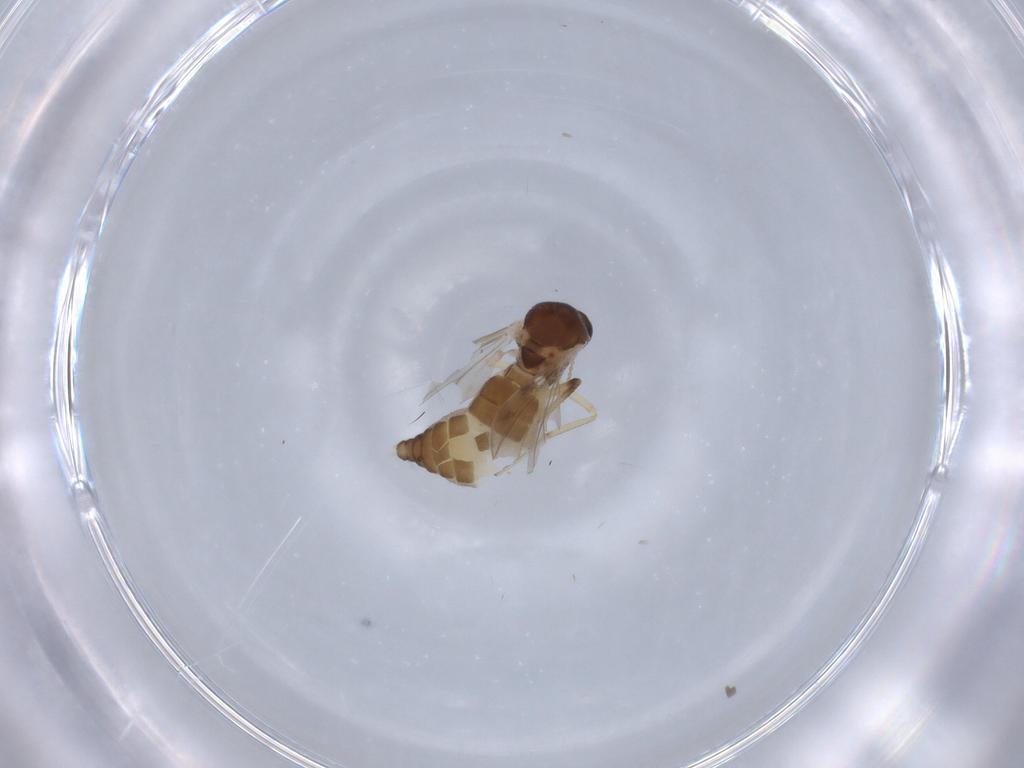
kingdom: Animalia
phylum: Arthropoda
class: Insecta
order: Diptera
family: Ceratopogonidae
